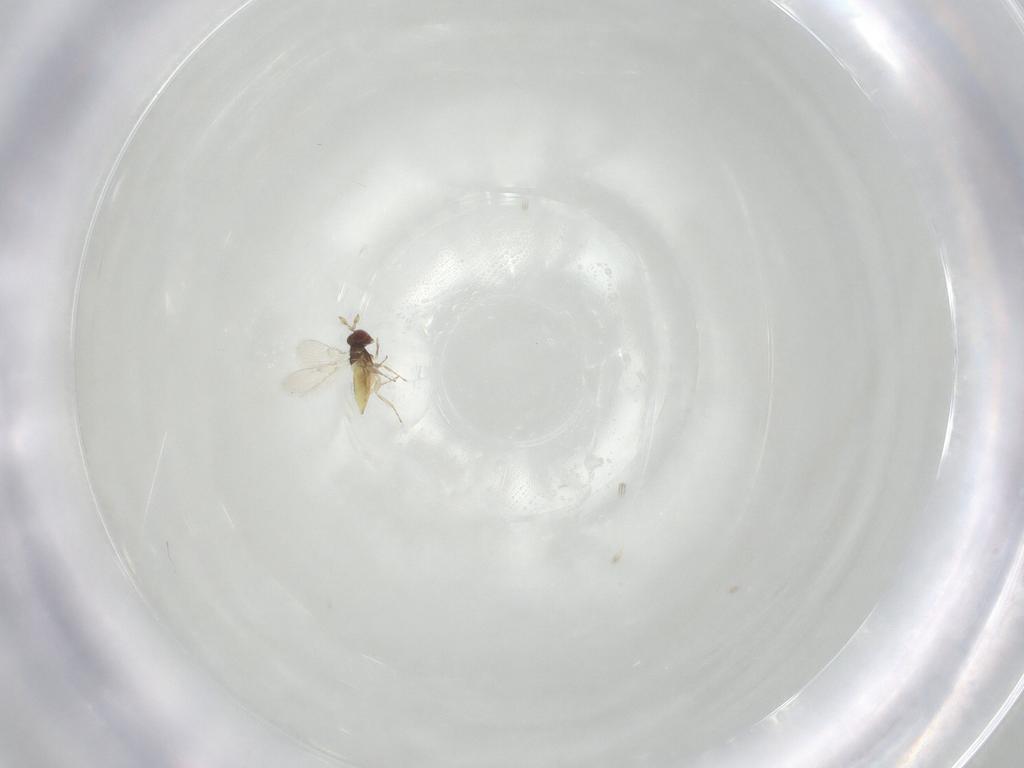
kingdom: Animalia
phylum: Arthropoda
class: Insecta
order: Hymenoptera
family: Trichogrammatidae
